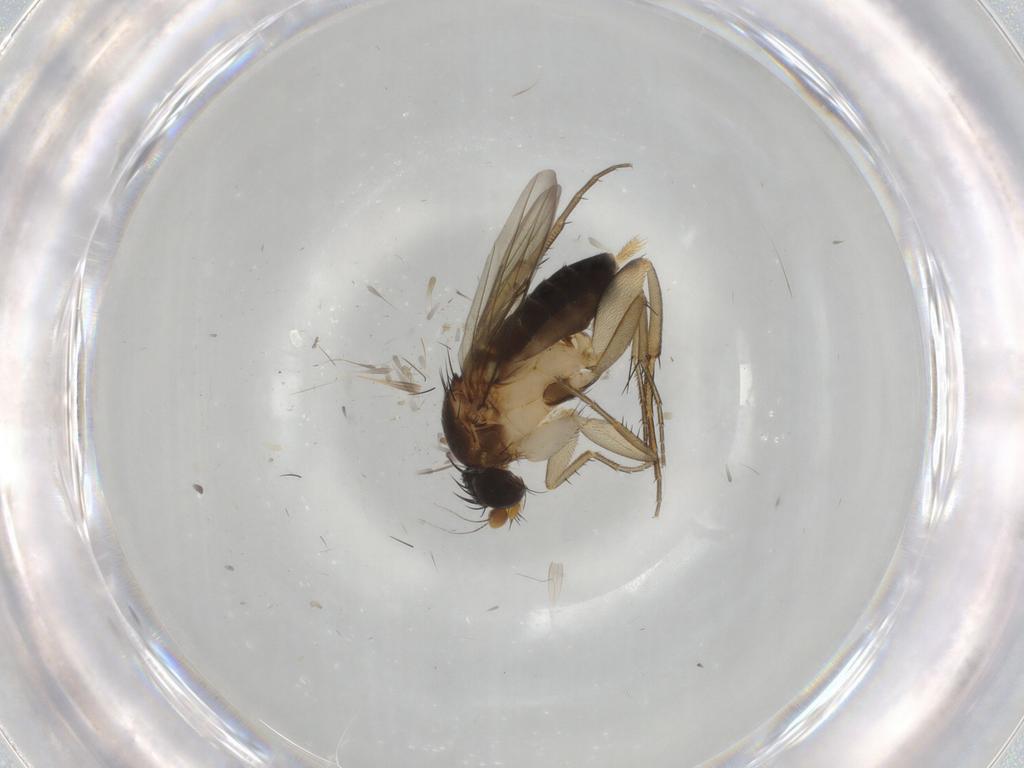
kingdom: Animalia
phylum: Arthropoda
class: Insecta
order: Diptera
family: Phoridae
